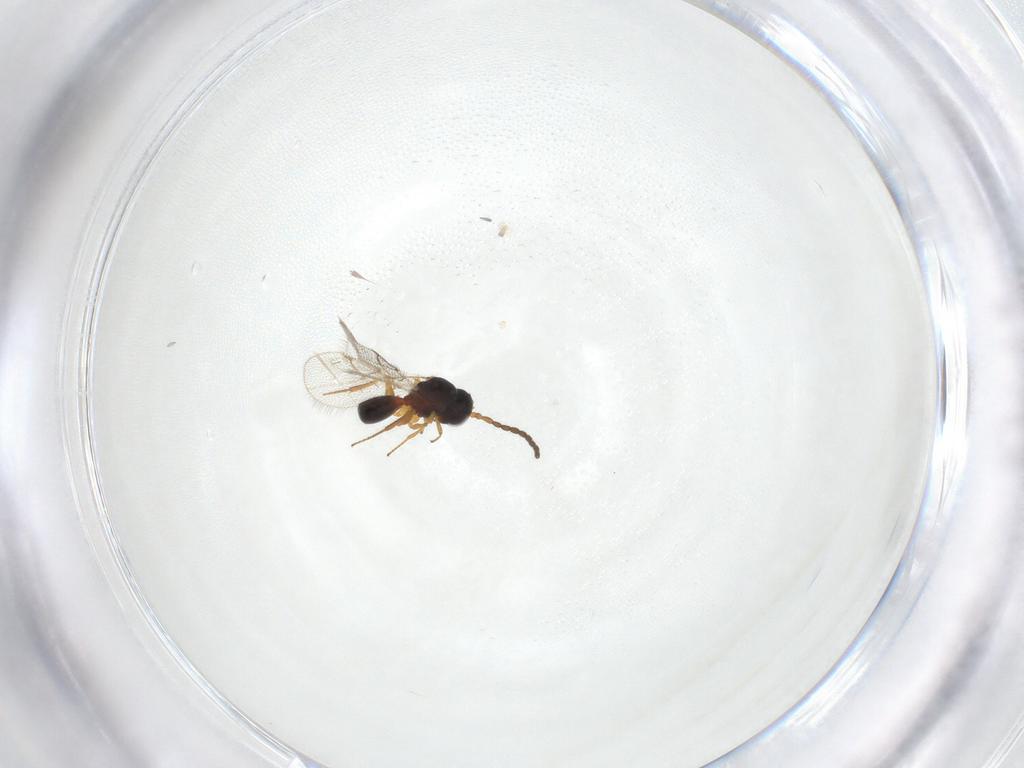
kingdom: Animalia
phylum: Arthropoda
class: Insecta
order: Hymenoptera
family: Figitidae
